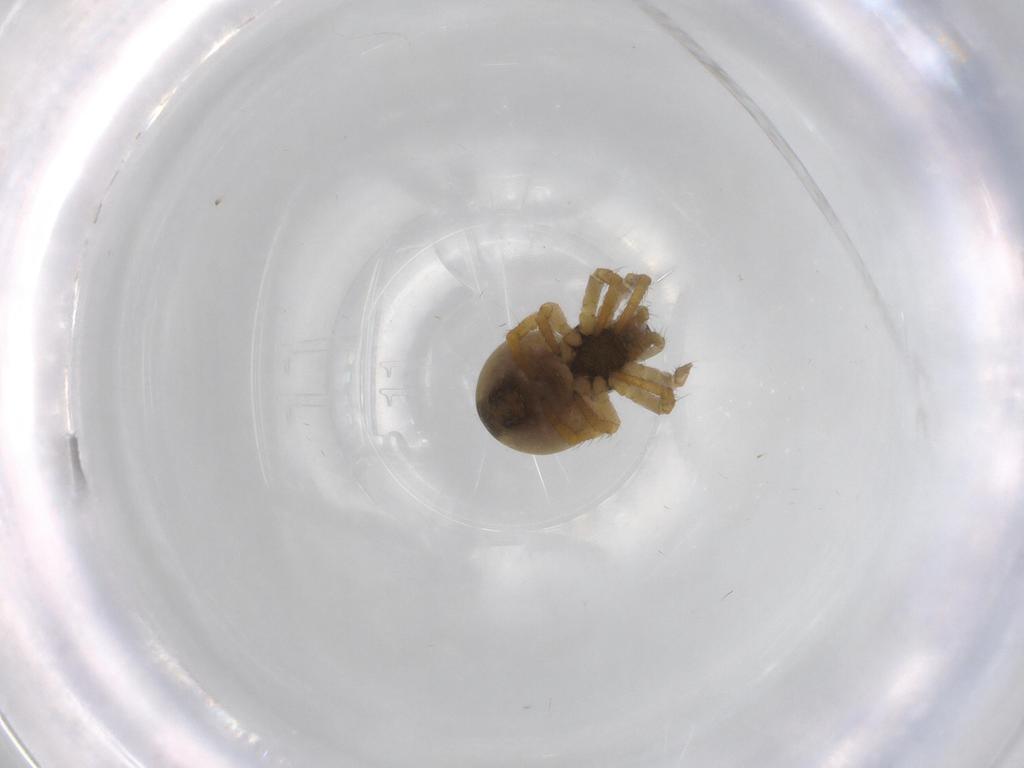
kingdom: Animalia
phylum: Arthropoda
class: Arachnida
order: Araneae
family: Araneidae
